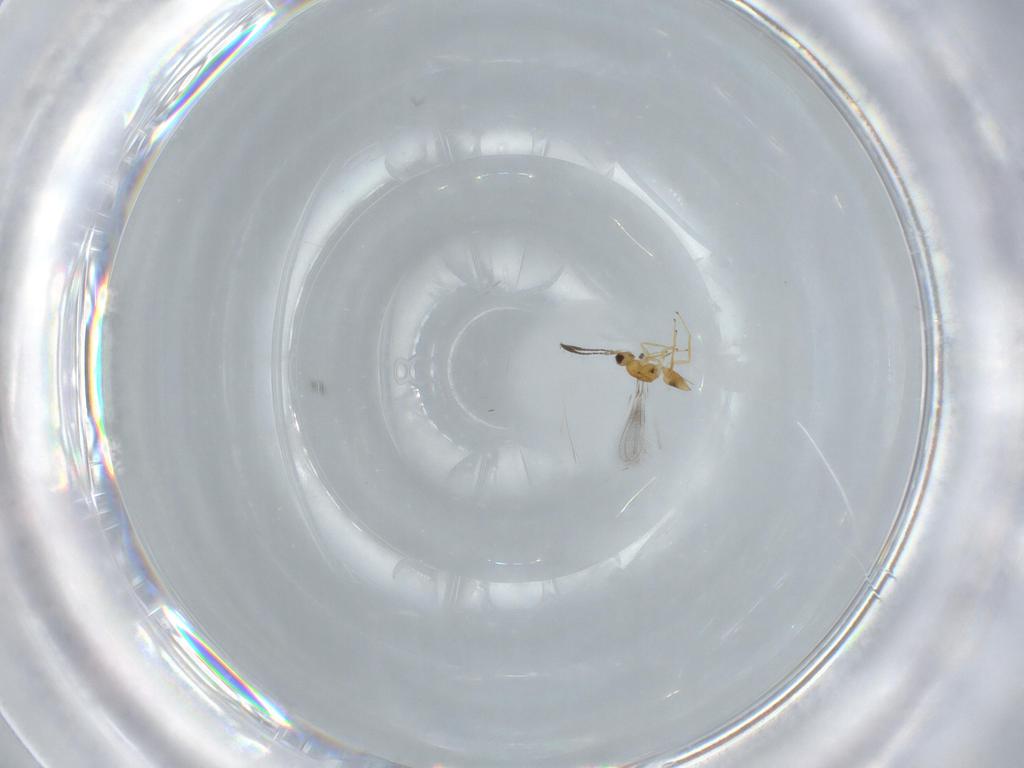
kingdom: Animalia
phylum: Arthropoda
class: Insecta
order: Hymenoptera
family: Mymaridae
